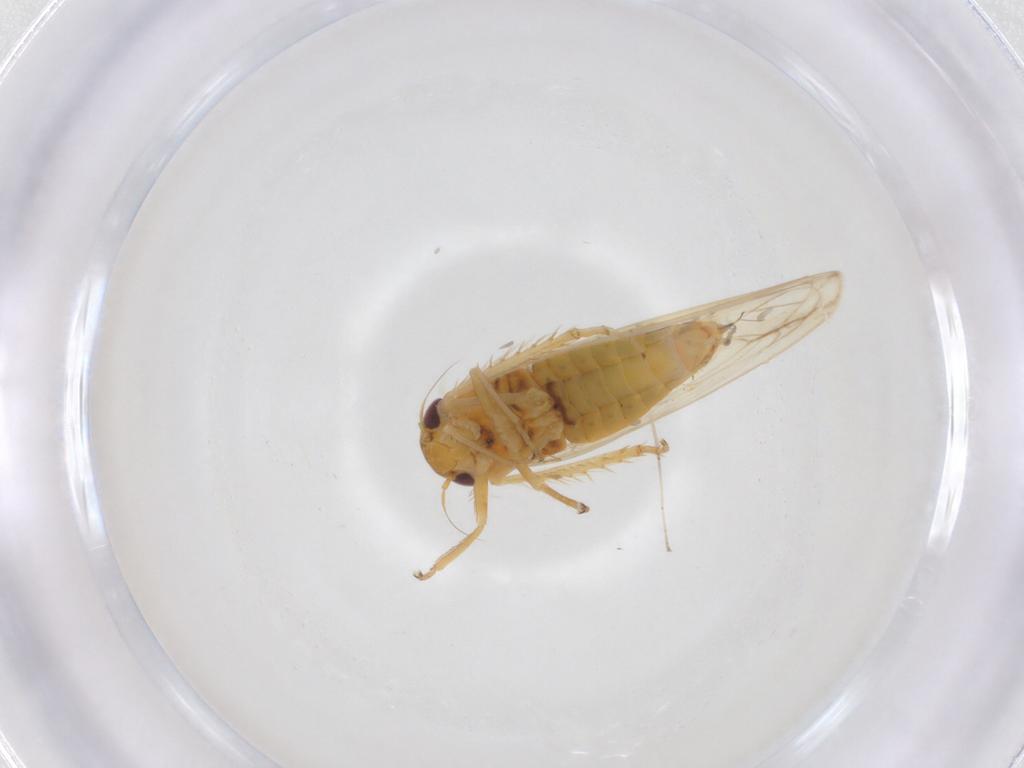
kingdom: Animalia
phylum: Arthropoda
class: Insecta
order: Hemiptera
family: Cicadellidae
